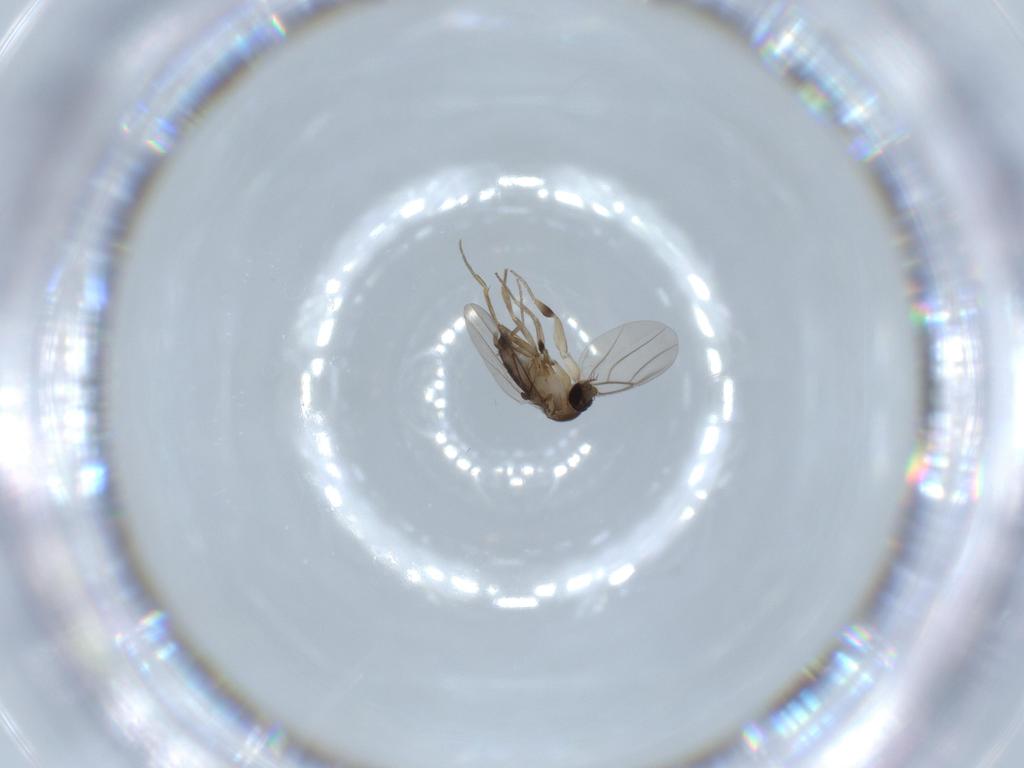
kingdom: Animalia
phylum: Arthropoda
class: Insecta
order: Diptera
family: Phoridae
